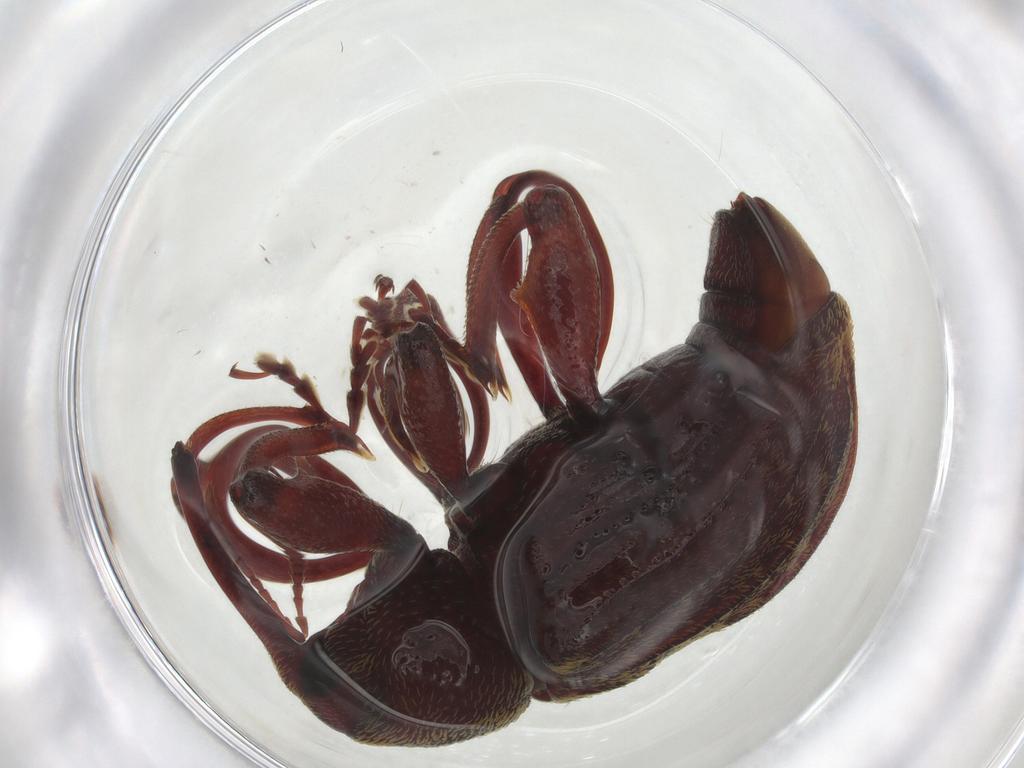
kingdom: Animalia
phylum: Arthropoda
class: Insecta
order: Coleoptera
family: Curculionidae
